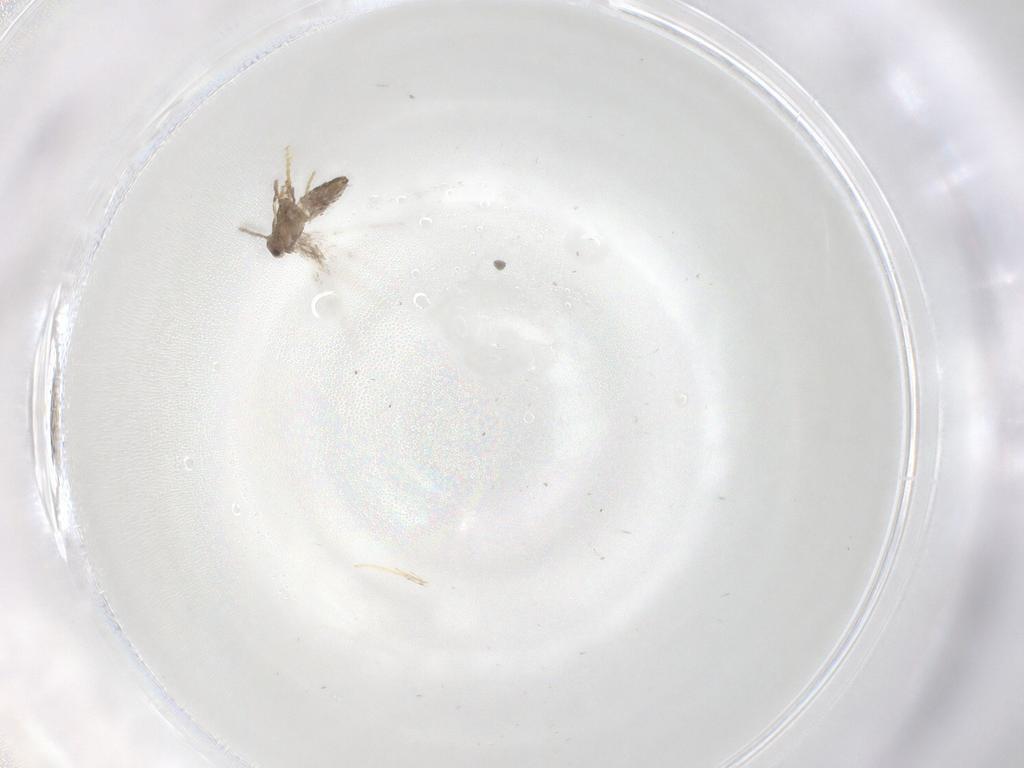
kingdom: Animalia
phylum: Arthropoda
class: Insecta
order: Lepidoptera
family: Nepticulidae
